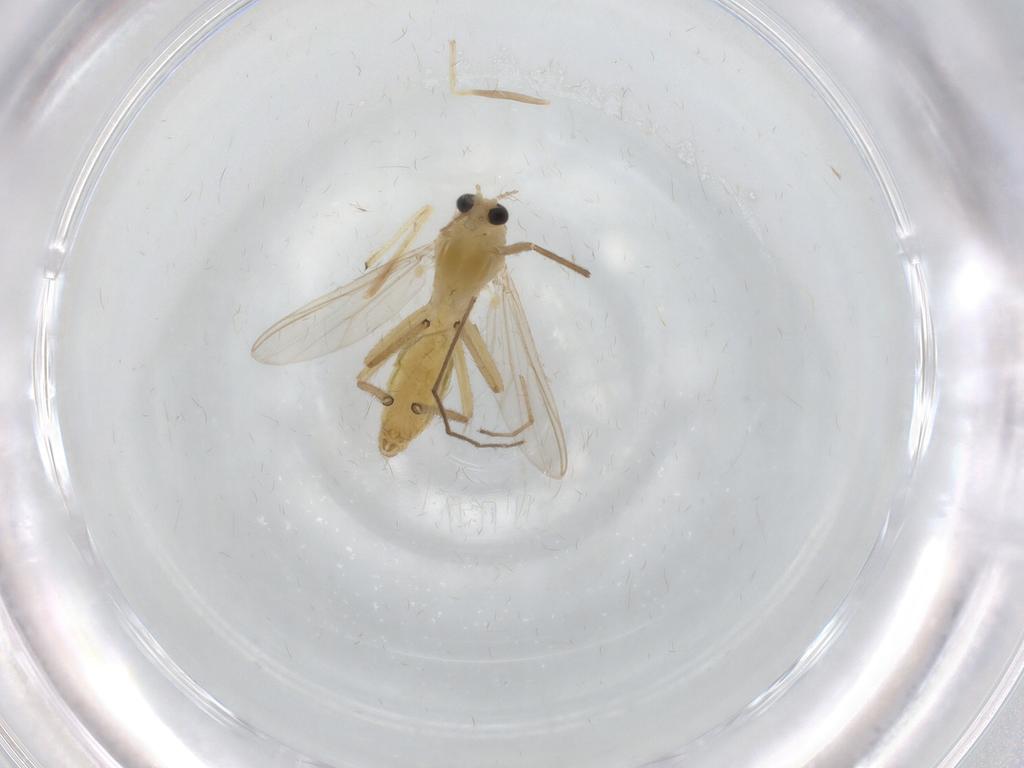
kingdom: Animalia
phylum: Arthropoda
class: Insecta
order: Diptera
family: Chironomidae
